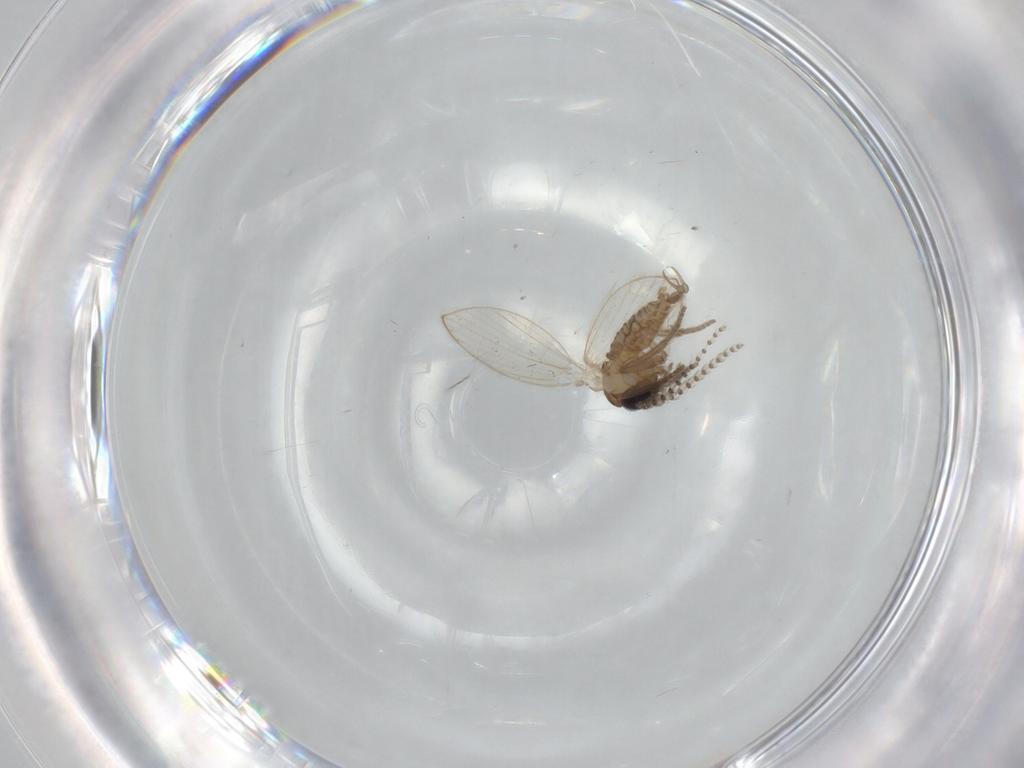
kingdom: Animalia
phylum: Arthropoda
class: Insecta
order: Diptera
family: Psychodidae
